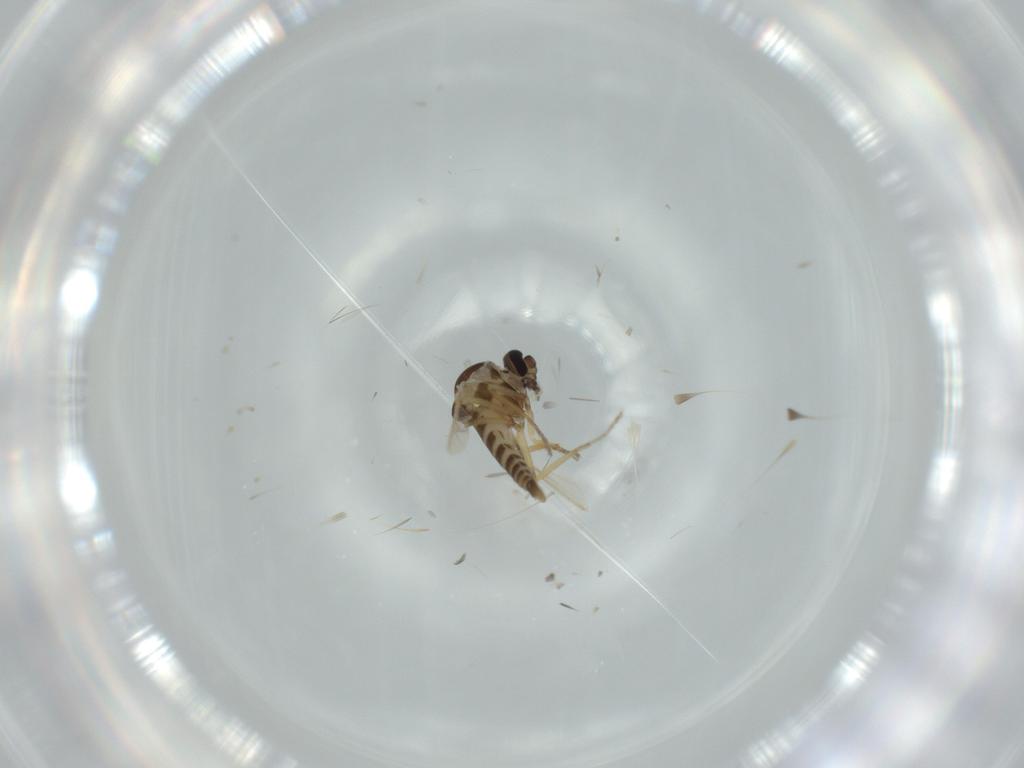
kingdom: Animalia
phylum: Arthropoda
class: Insecta
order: Diptera
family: Ceratopogonidae
